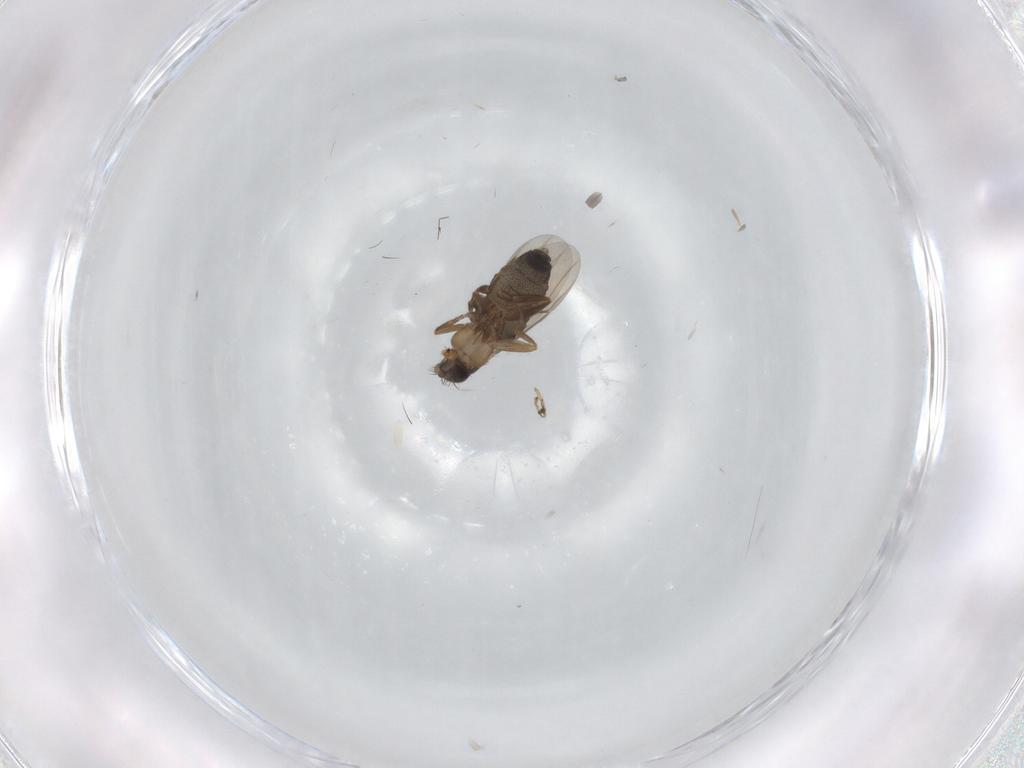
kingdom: Animalia
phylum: Arthropoda
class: Insecta
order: Diptera
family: Phoridae
